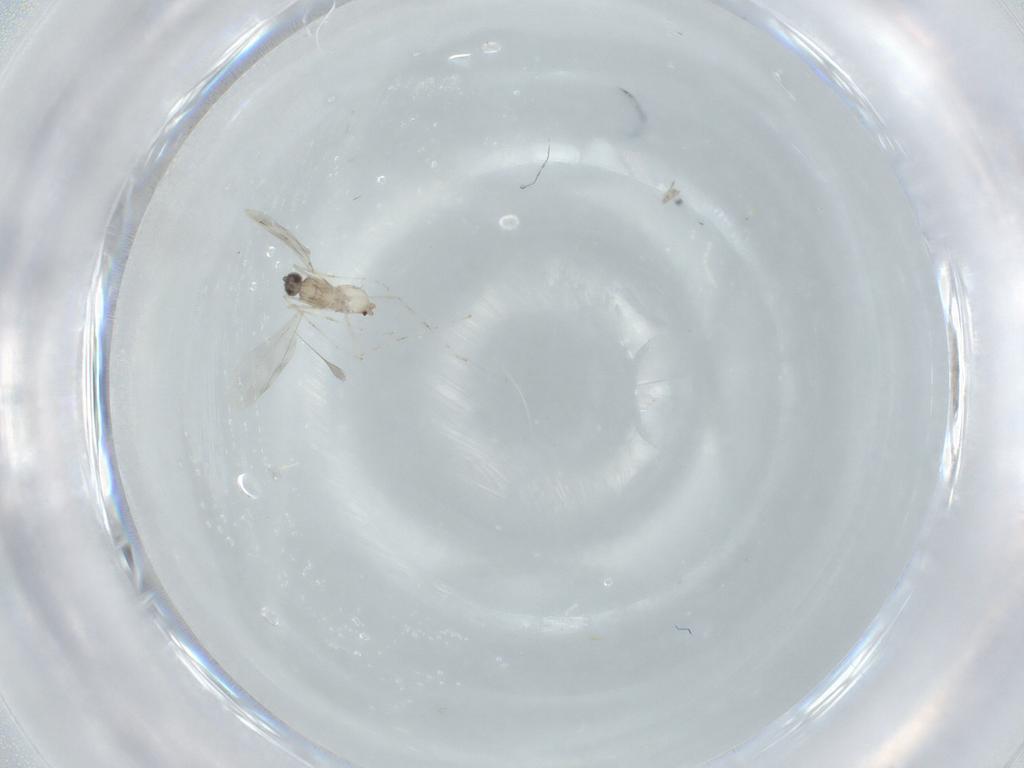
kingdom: Animalia
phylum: Arthropoda
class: Insecta
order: Diptera
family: Cecidomyiidae
